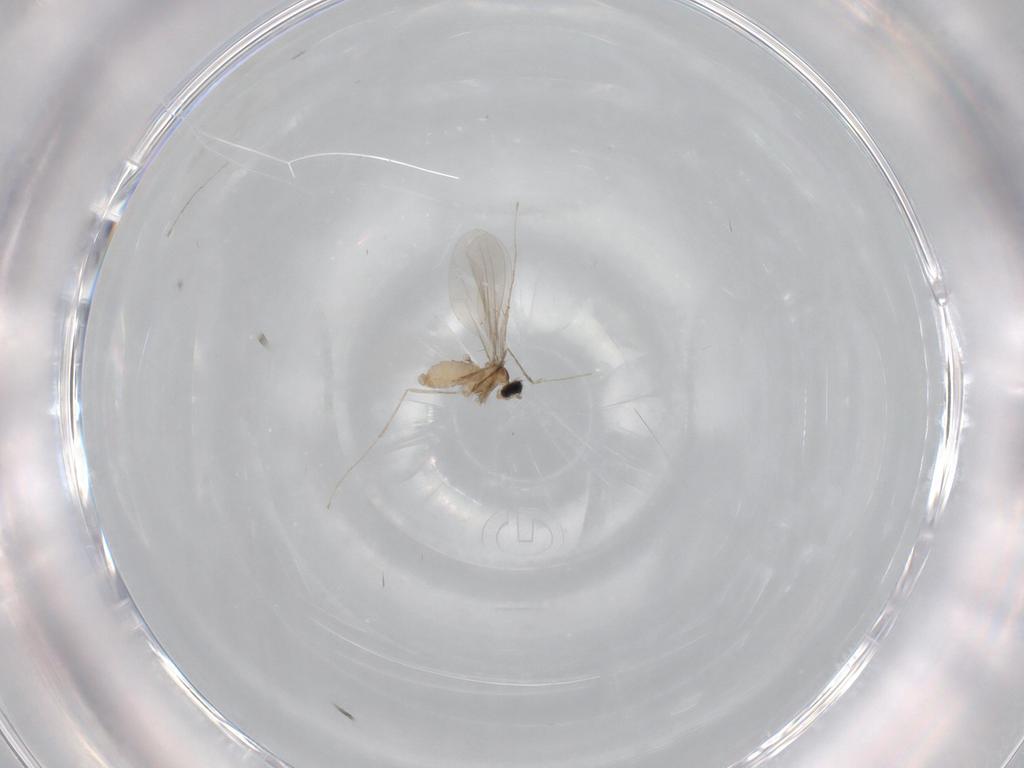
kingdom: Animalia
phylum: Arthropoda
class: Insecta
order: Diptera
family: Cecidomyiidae
